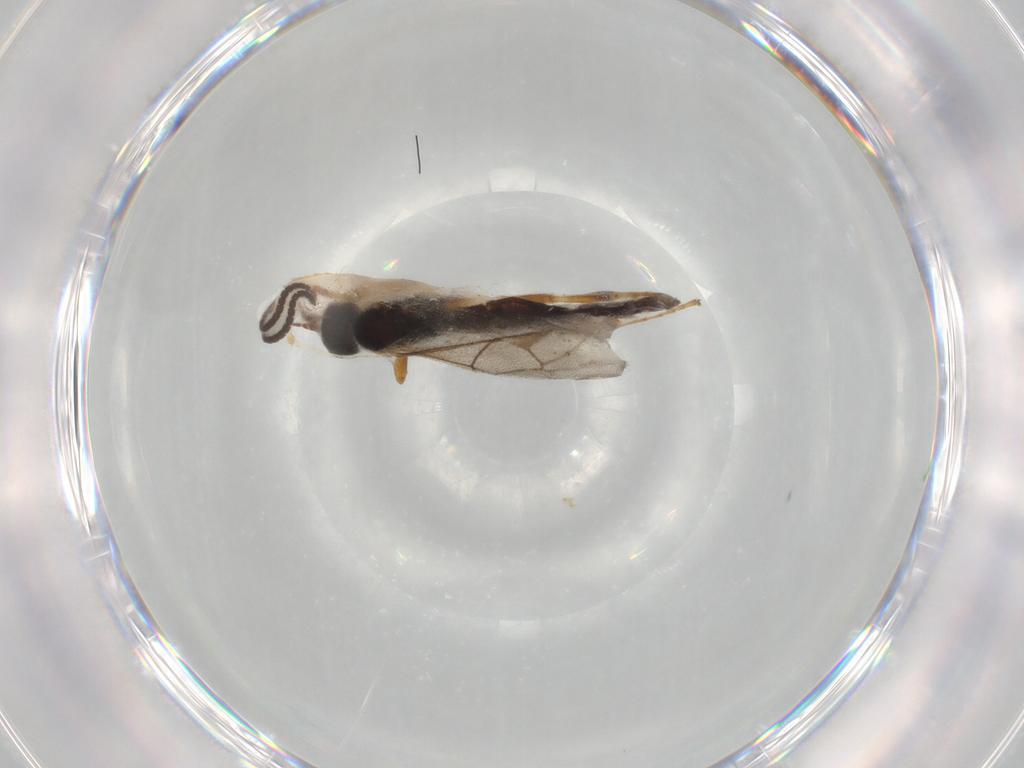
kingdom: Animalia
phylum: Arthropoda
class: Insecta
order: Hymenoptera
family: Ichneumonidae
